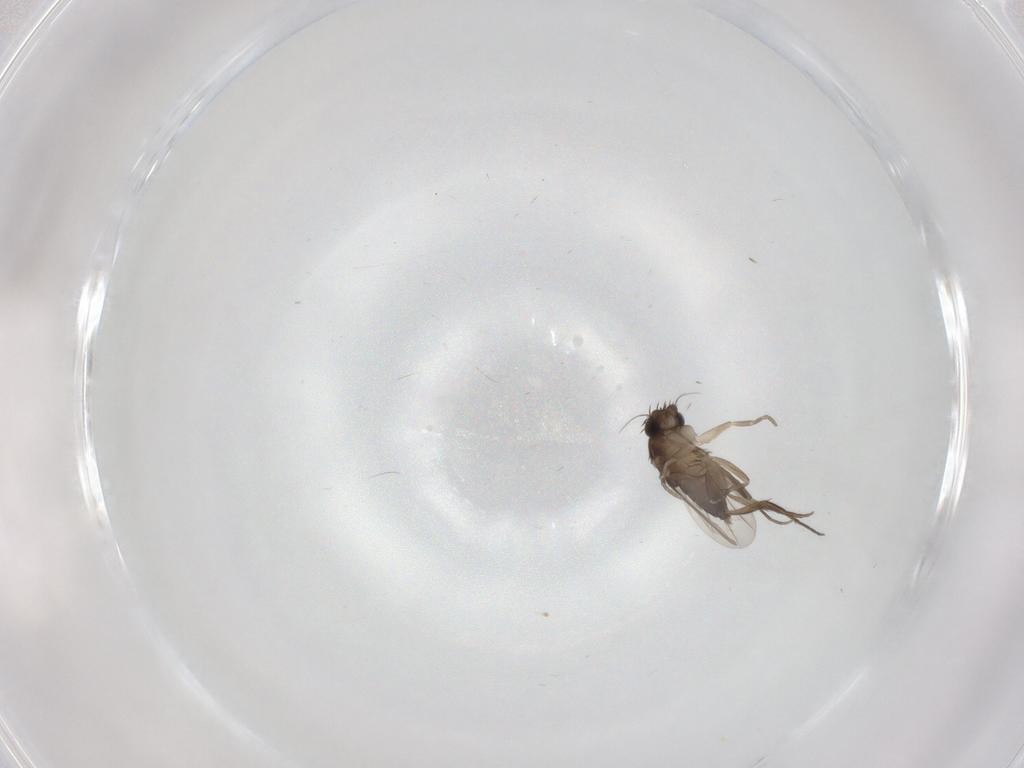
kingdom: Animalia
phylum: Arthropoda
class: Insecta
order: Diptera
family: Phoridae
